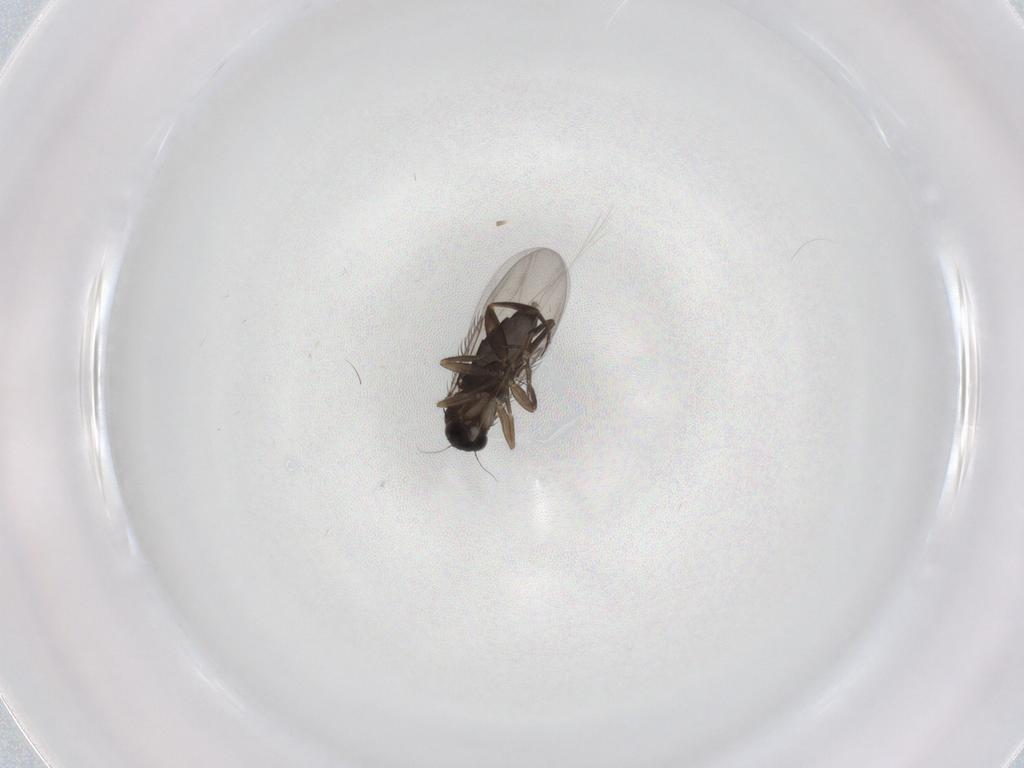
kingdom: Animalia
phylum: Arthropoda
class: Insecta
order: Diptera
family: Phoridae
